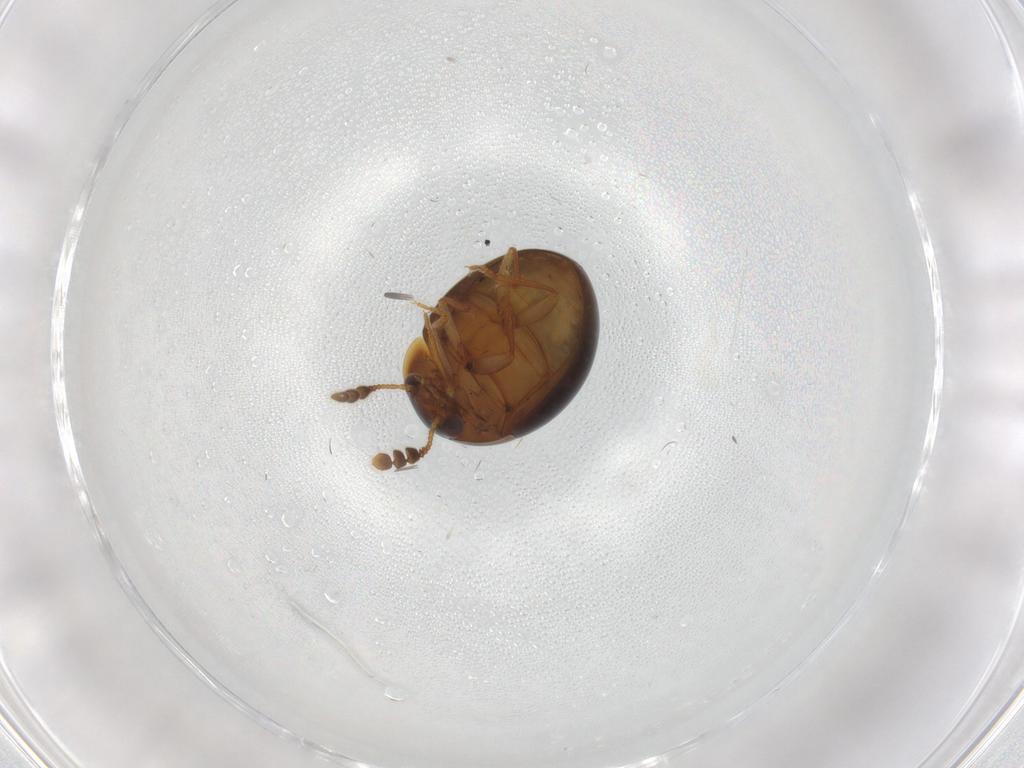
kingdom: Animalia
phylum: Arthropoda
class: Insecta
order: Coleoptera
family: Leiodidae
